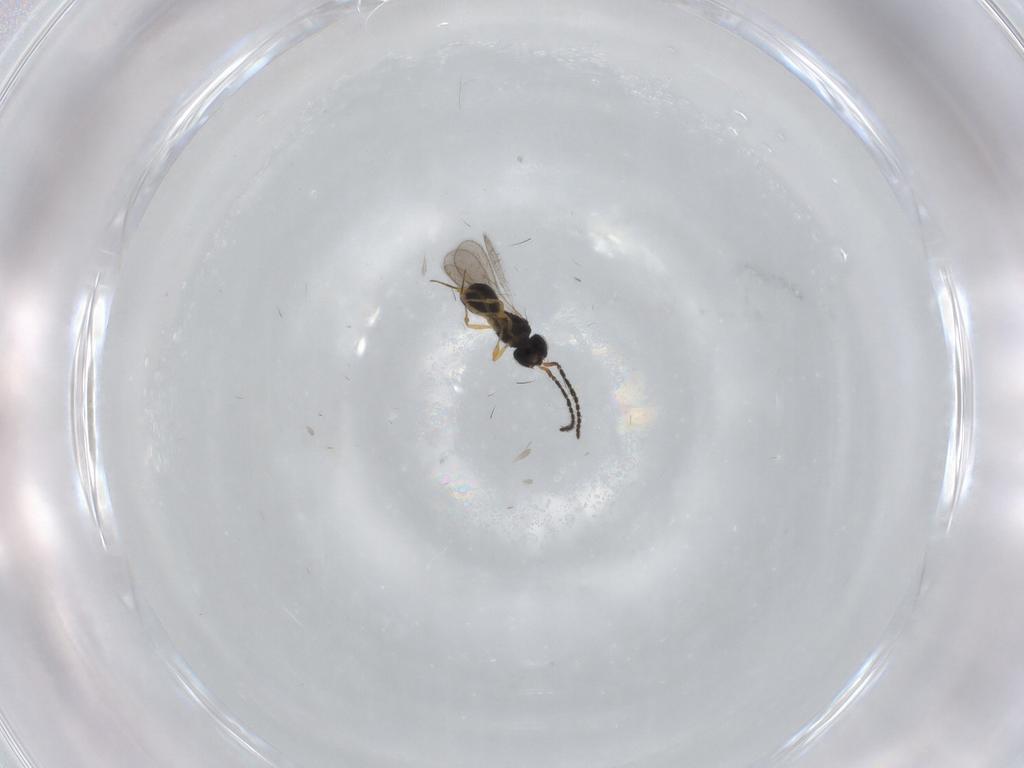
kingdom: Animalia
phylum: Arthropoda
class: Insecta
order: Hymenoptera
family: Scelionidae
